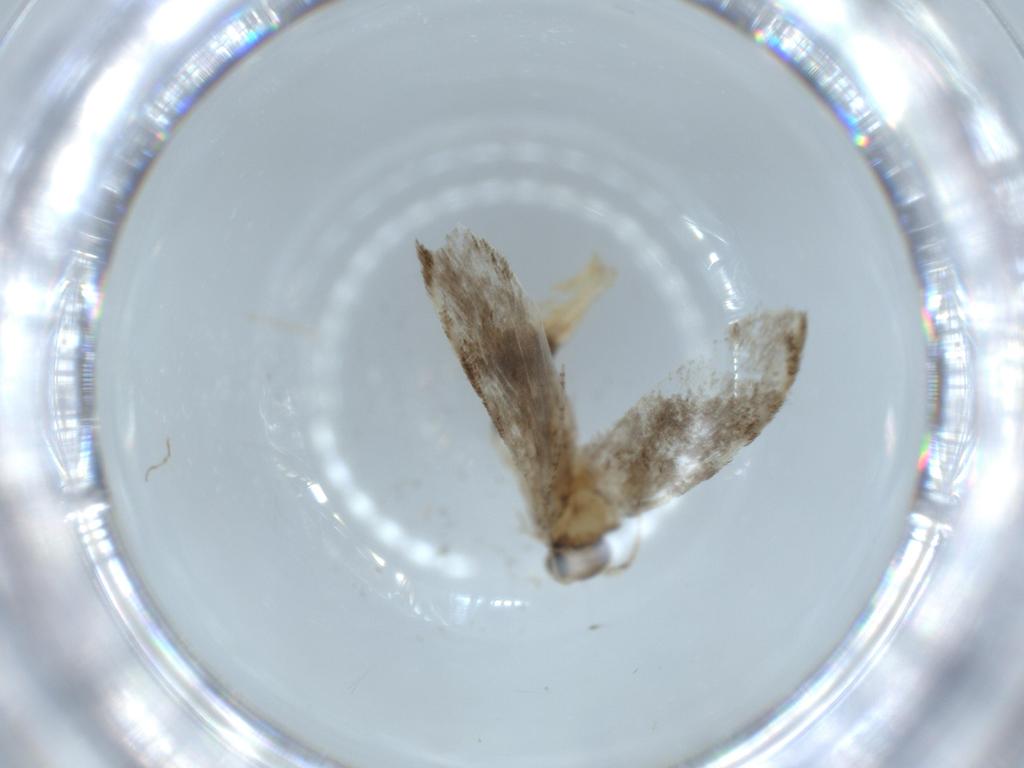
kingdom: Animalia
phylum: Arthropoda
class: Insecta
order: Lepidoptera
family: Tineidae
